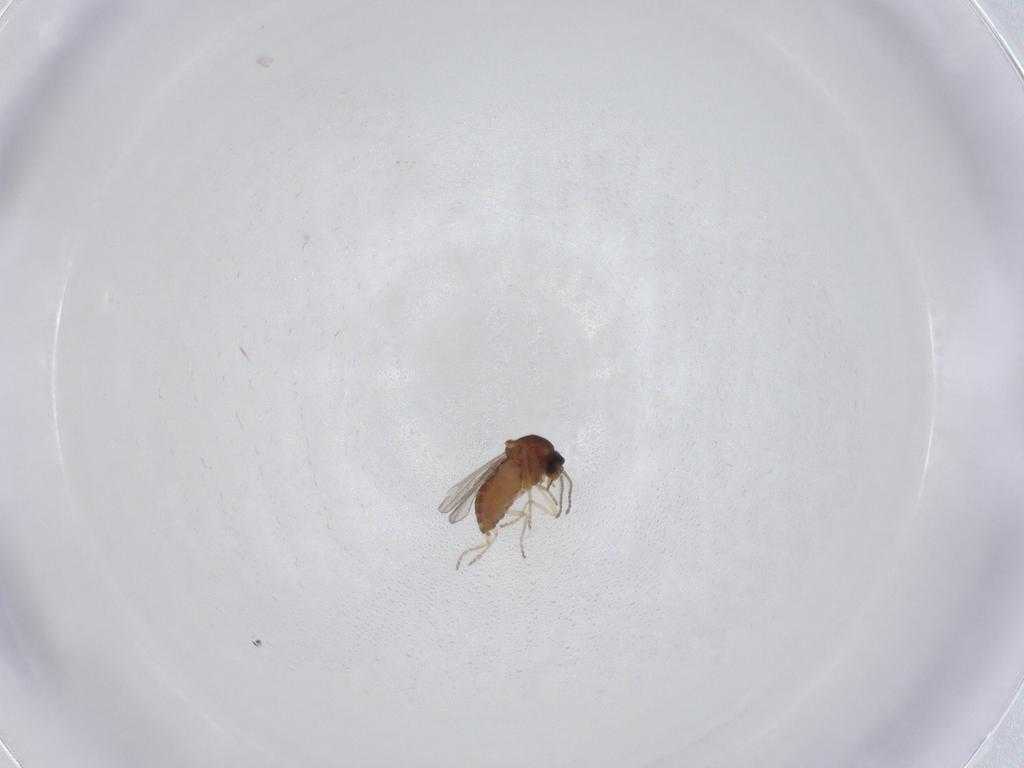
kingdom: Animalia
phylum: Arthropoda
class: Insecta
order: Diptera
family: Ceratopogonidae
